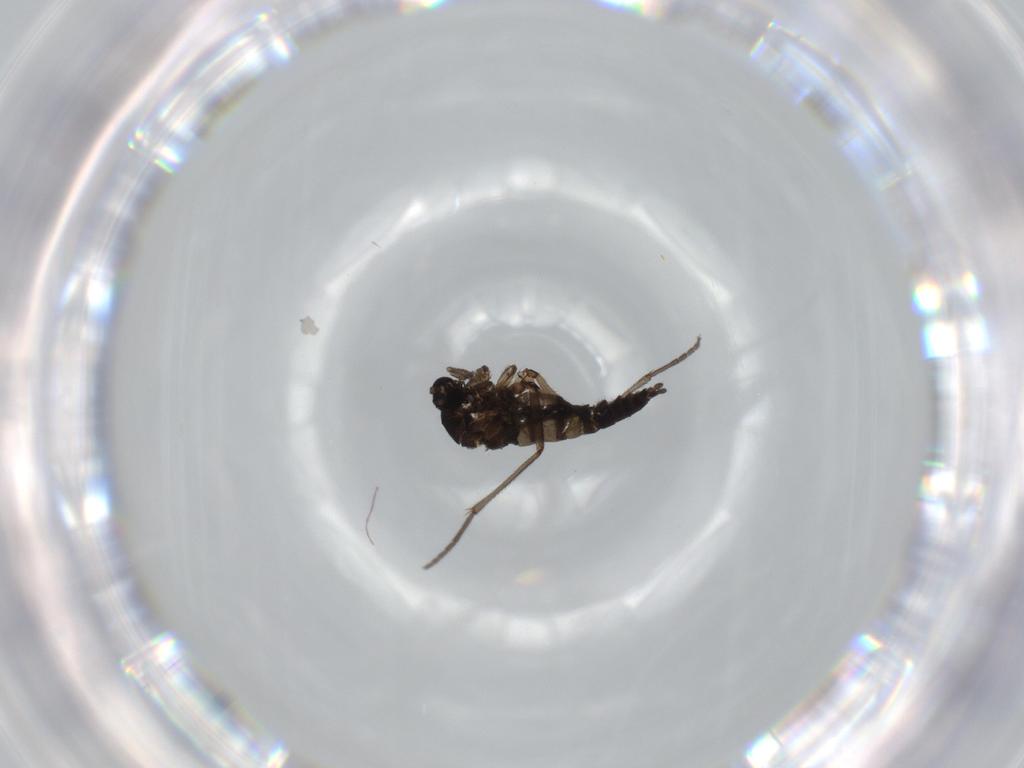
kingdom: Animalia
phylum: Arthropoda
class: Insecta
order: Diptera
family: Sciaridae
